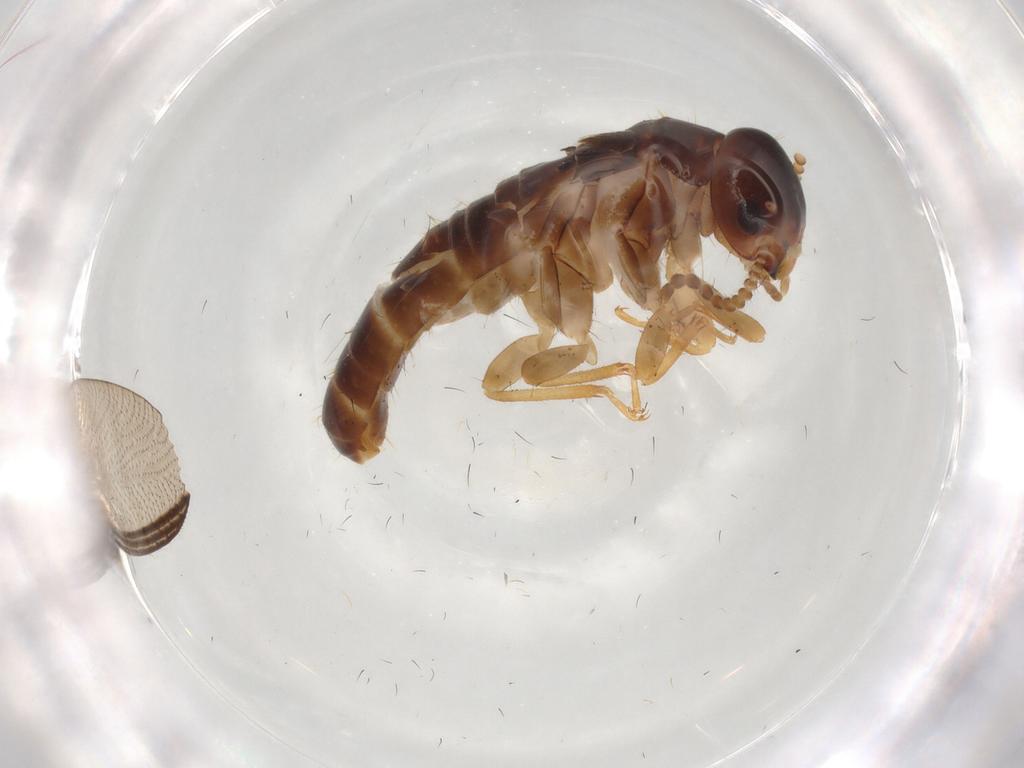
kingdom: Animalia
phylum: Arthropoda
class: Insecta
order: Blattodea
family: Kalotermitidae
